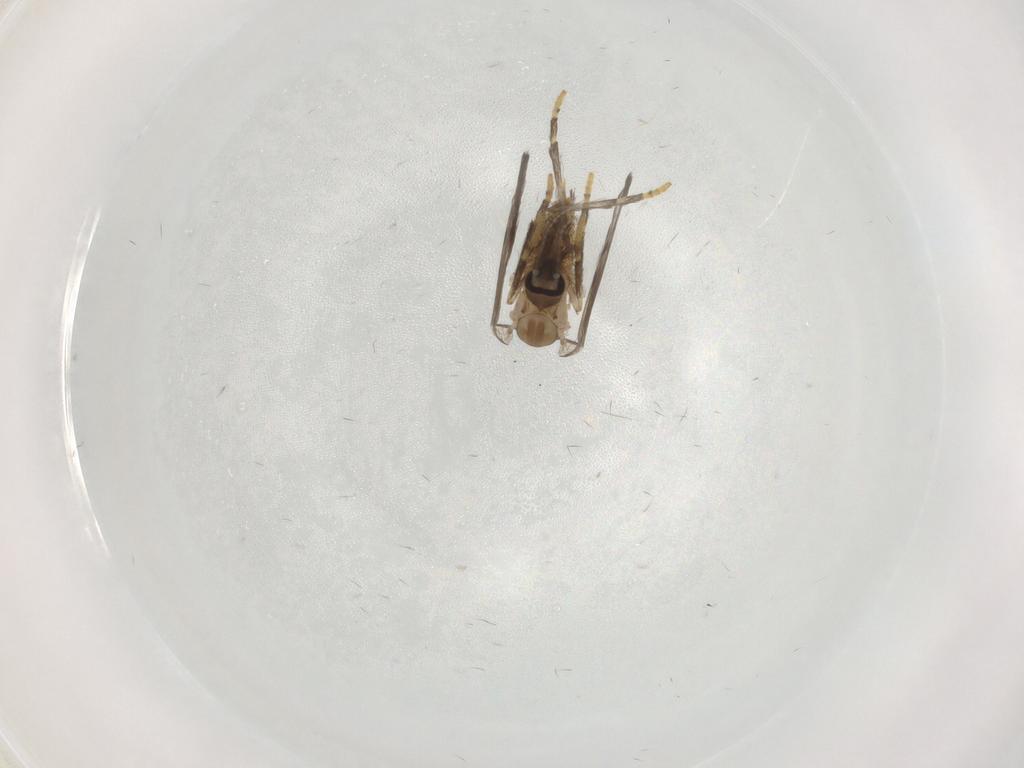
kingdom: Animalia
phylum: Arthropoda
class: Insecta
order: Diptera
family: Psychodidae
